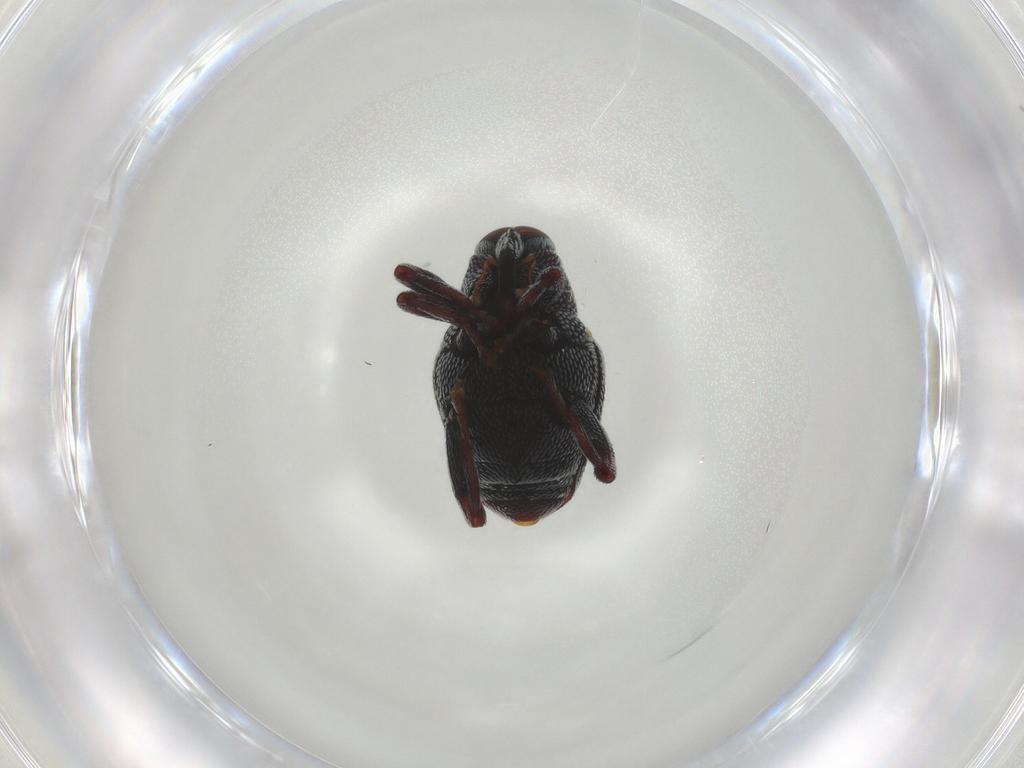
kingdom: Animalia
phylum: Arthropoda
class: Insecta
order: Coleoptera
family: Curculionidae
